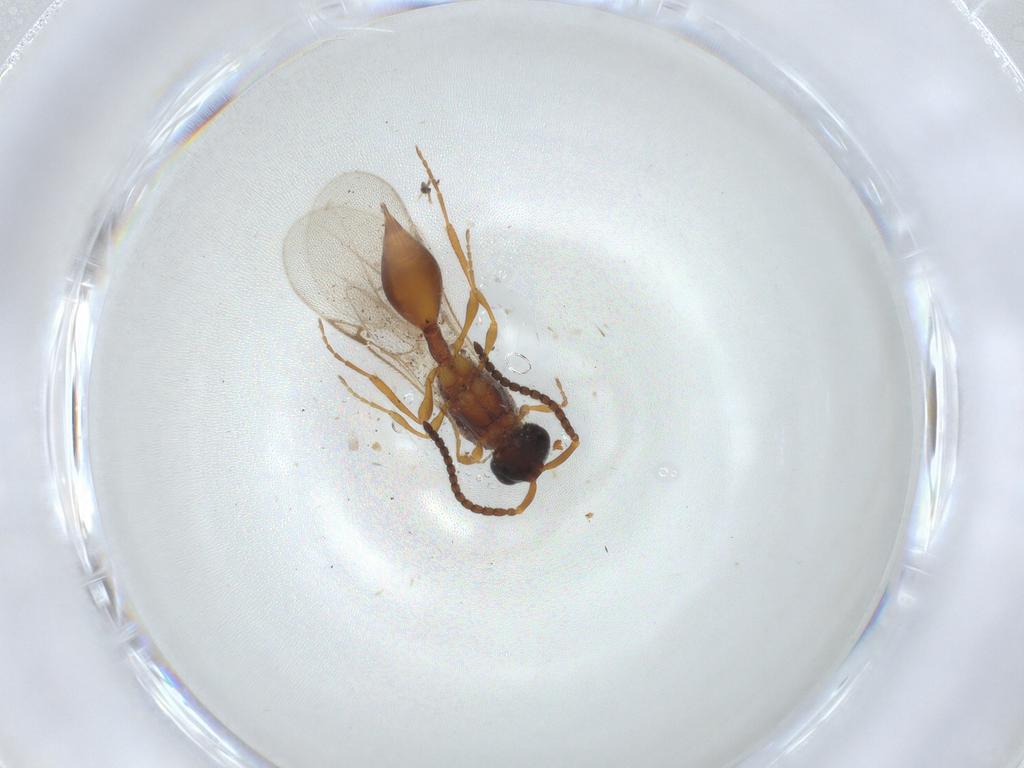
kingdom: Animalia
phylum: Arthropoda
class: Insecta
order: Hymenoptera
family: Diapriidae
